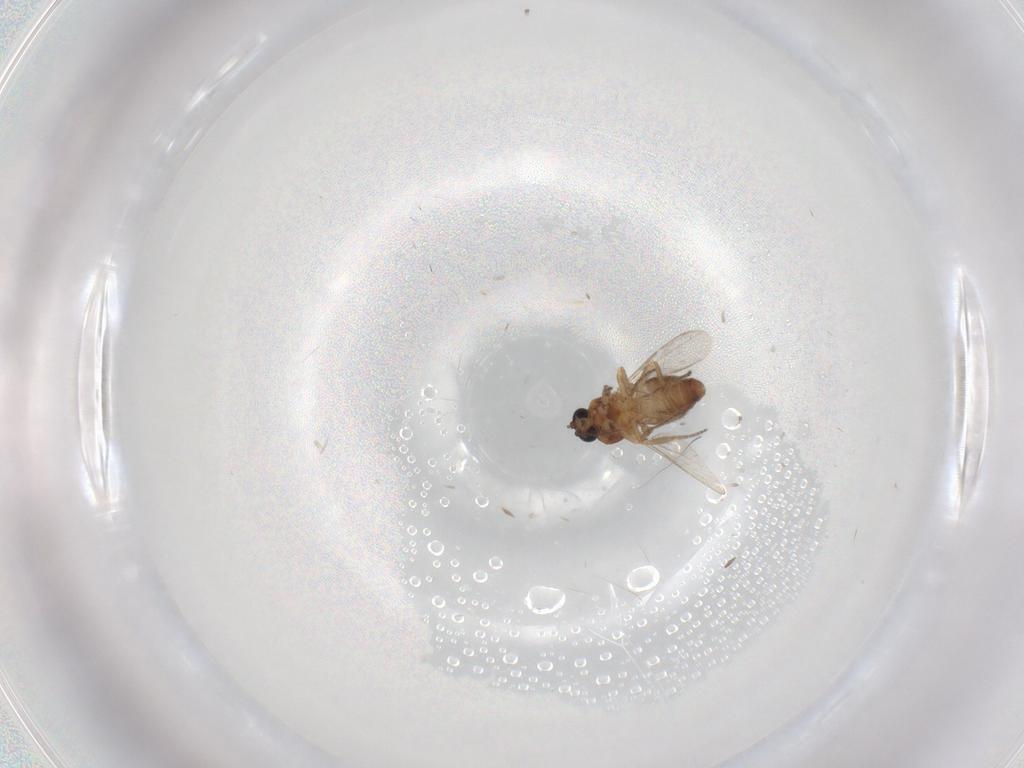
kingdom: Animalia
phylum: Arthropoda
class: Insecta
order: Diptera
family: Ceratopogonidae
